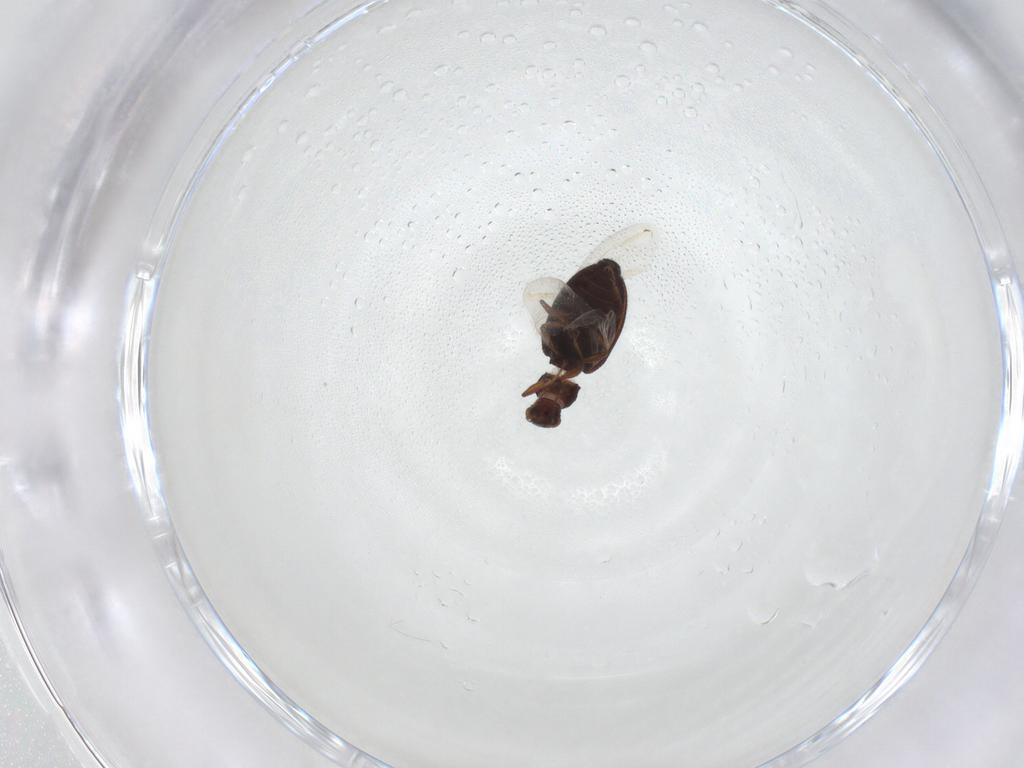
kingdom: Animalia
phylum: Arthropoda
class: Insecta
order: Coleoptera
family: Latridiidae
